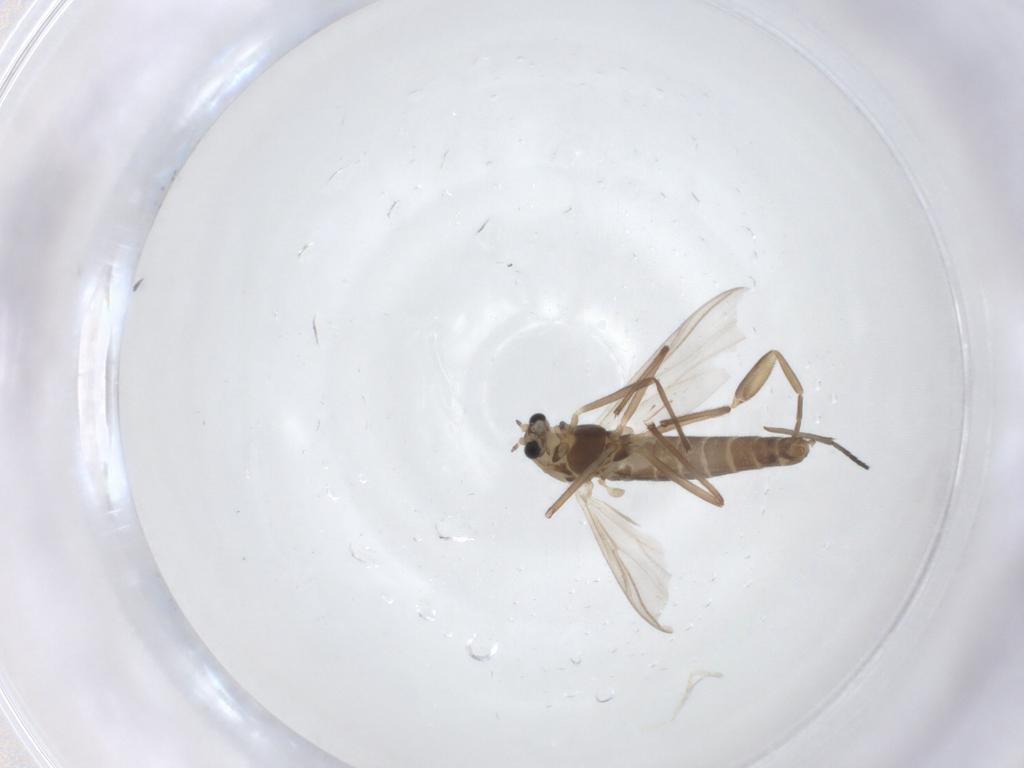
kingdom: Animalia
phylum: Arthropoda
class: Insecta
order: Diptera
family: Chironomidae
